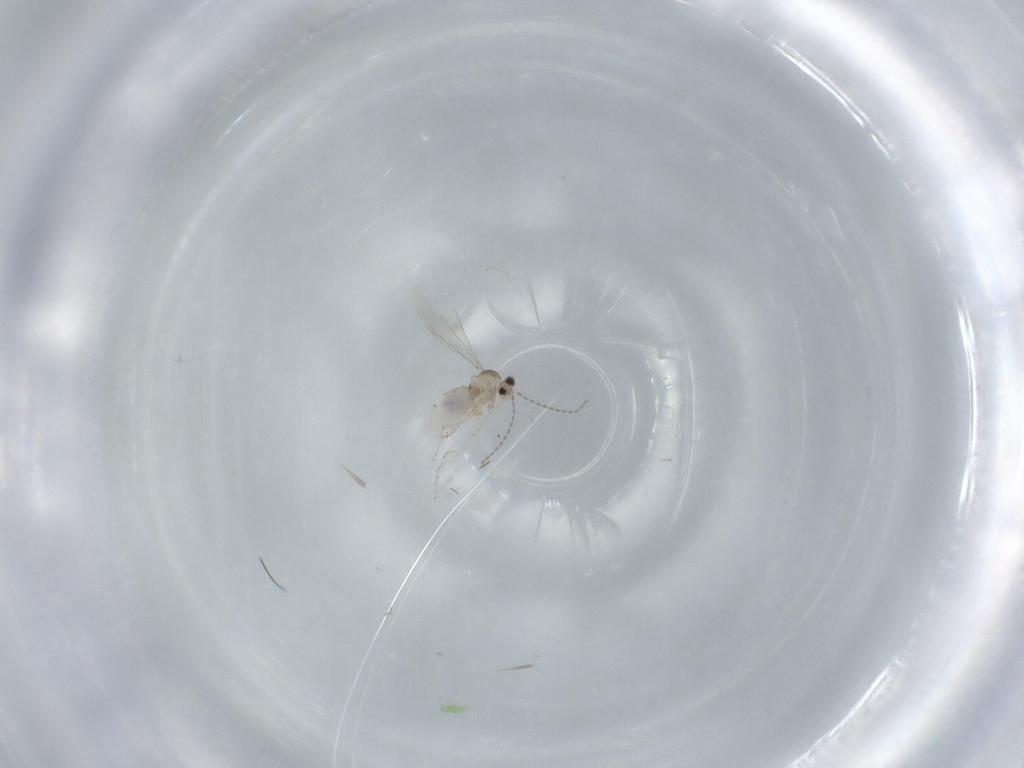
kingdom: Animalia
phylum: Arthropoda
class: Insecta
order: Diptera
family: Cecidomyiidae
